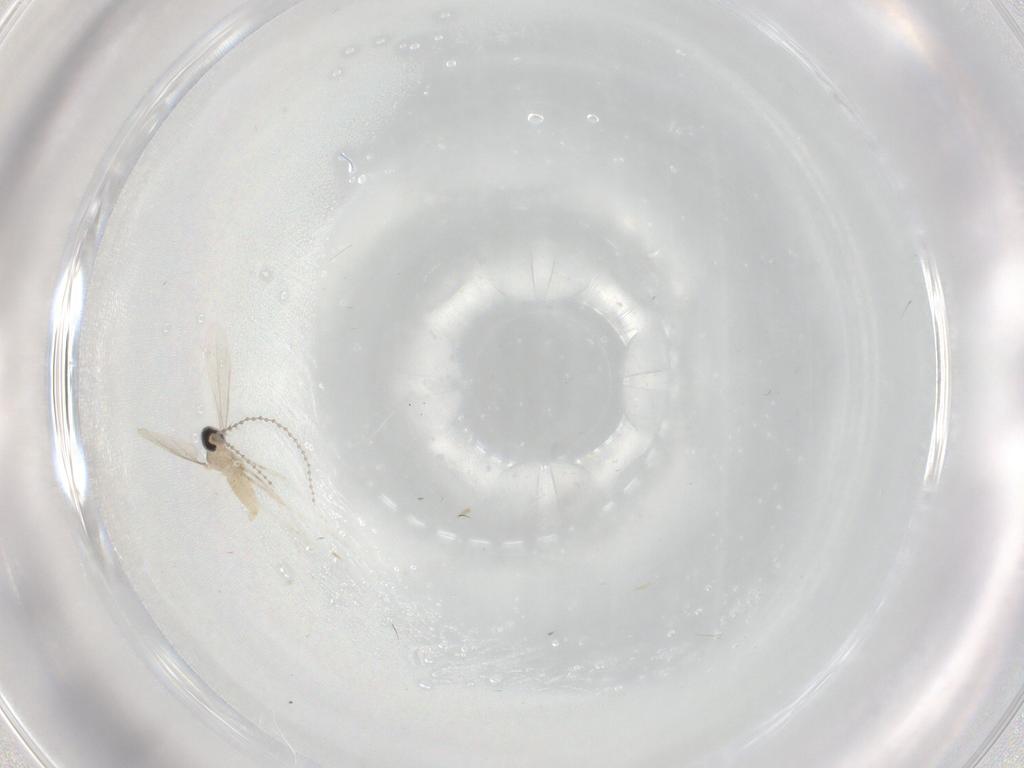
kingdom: Animalia
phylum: Arthropoda
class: Insecta
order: Diptera
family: Cecidomyiidae
